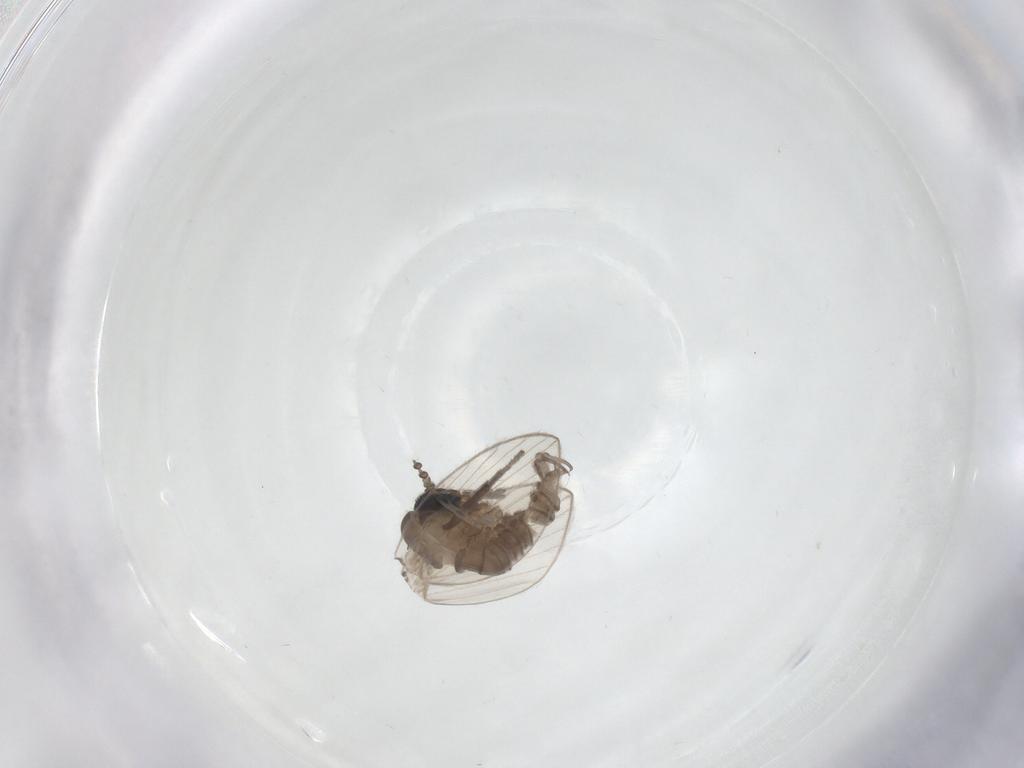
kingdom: Animalia
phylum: Arthropoda
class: Insecta
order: Diptera
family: Psychodidae
